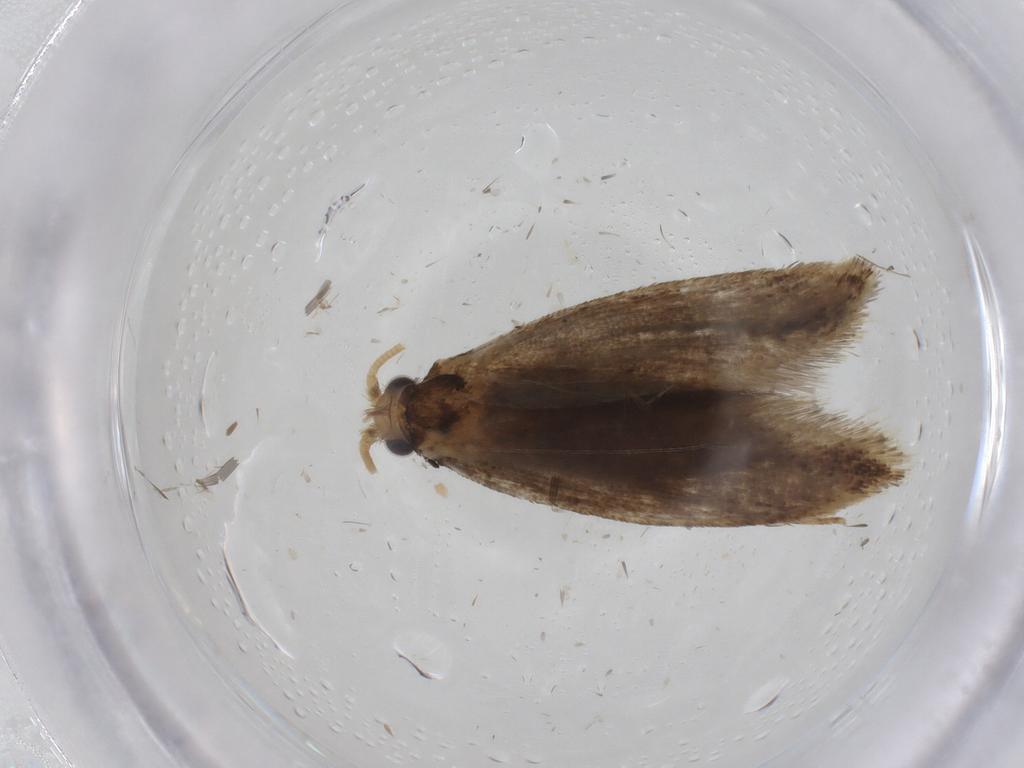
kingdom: Animalia
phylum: Arthropoda
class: Insecta
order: Lepidoptera
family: Tineidae
